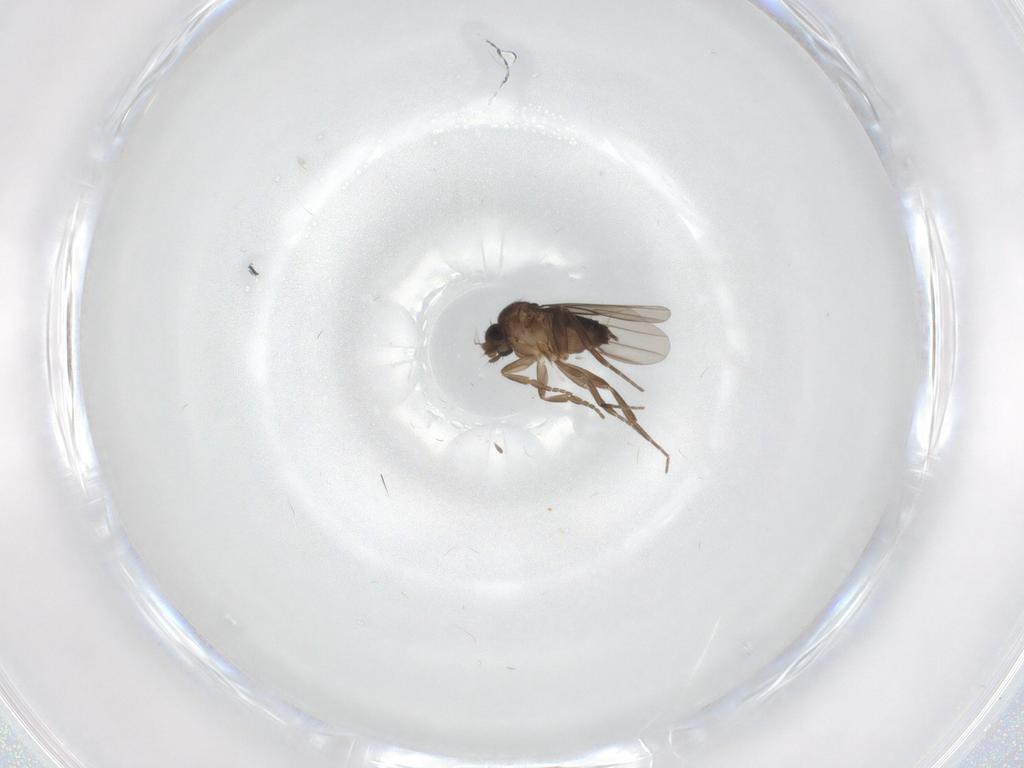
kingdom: Animalia
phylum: Arthropoda
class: Insecta
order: Diptera
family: Phoridae
